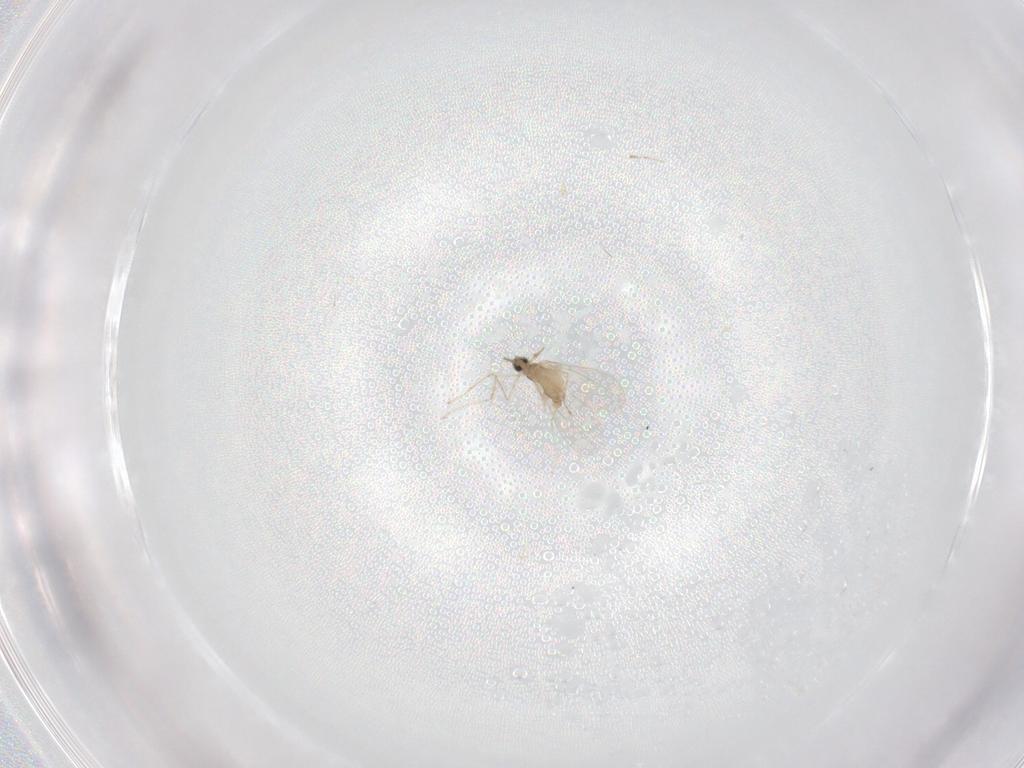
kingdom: Animalia
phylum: Arthropoda
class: Insecta
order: Diptera
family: Cecidomyiidae
